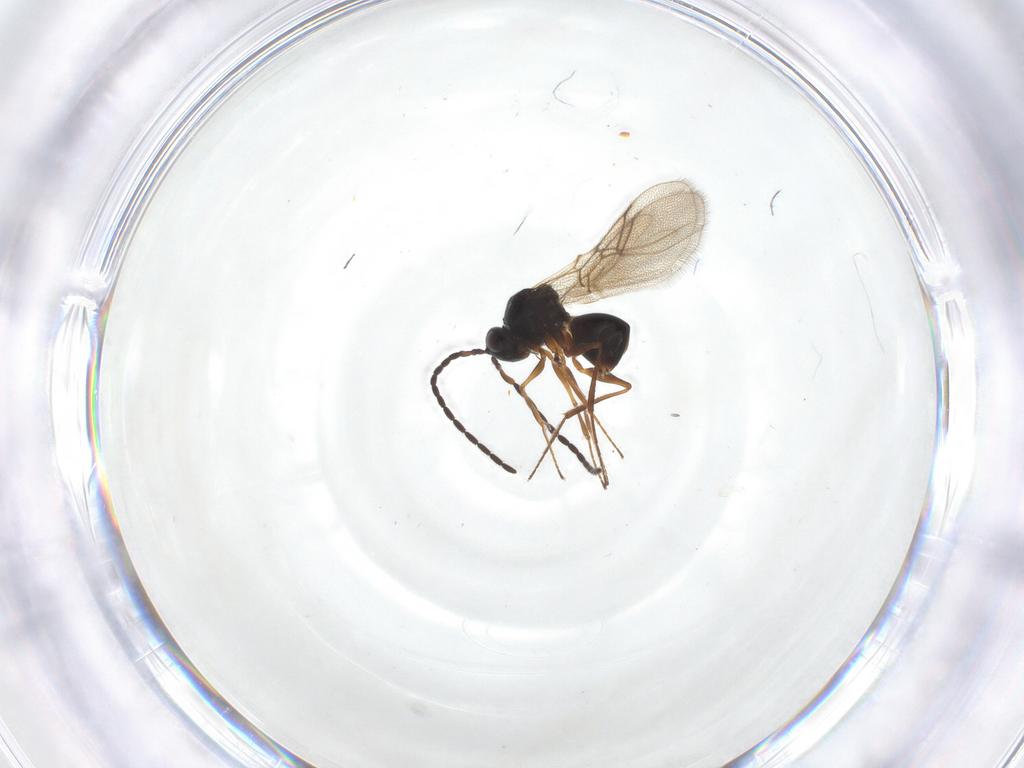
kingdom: Animalia
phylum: Arthropoda
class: Insecta
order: Hymenoptera
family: Figitidae
